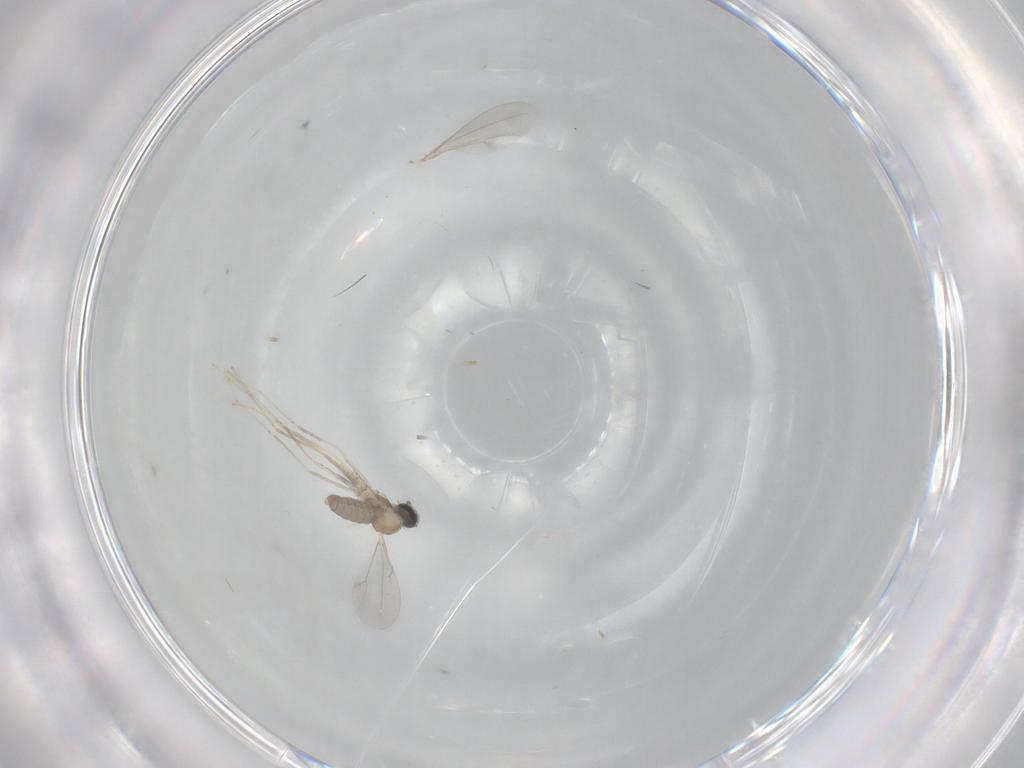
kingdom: Animalia
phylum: Arthropoda
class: Insecta
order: Diptera
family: Cecidomyiidae
